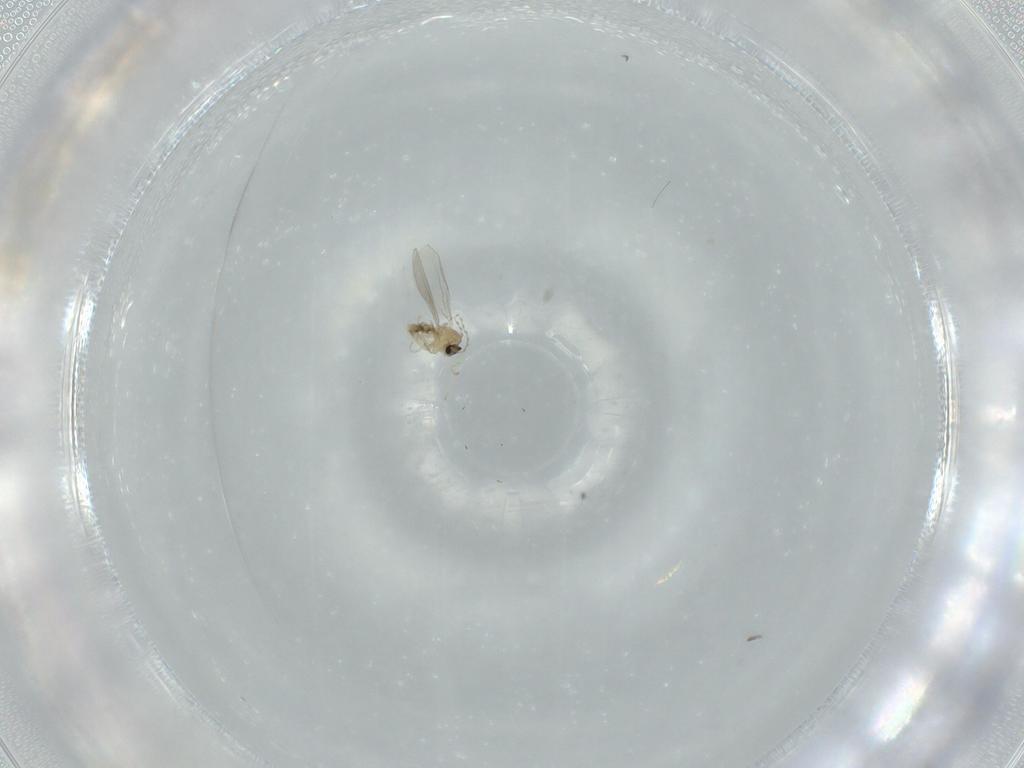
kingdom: Animalia
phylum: Arthropoda
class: Insecta
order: Diptera
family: Cecidomyiidae
